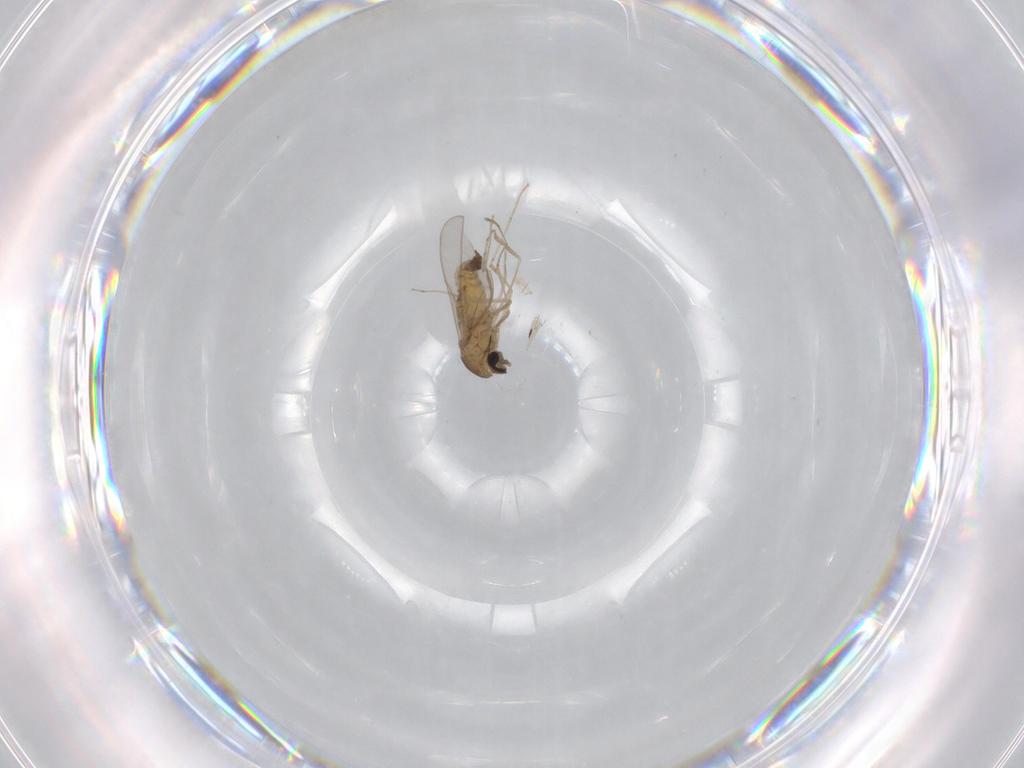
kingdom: Animalia
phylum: Arthropoda
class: Insecta
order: Diptera
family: Cecidomyiidae
